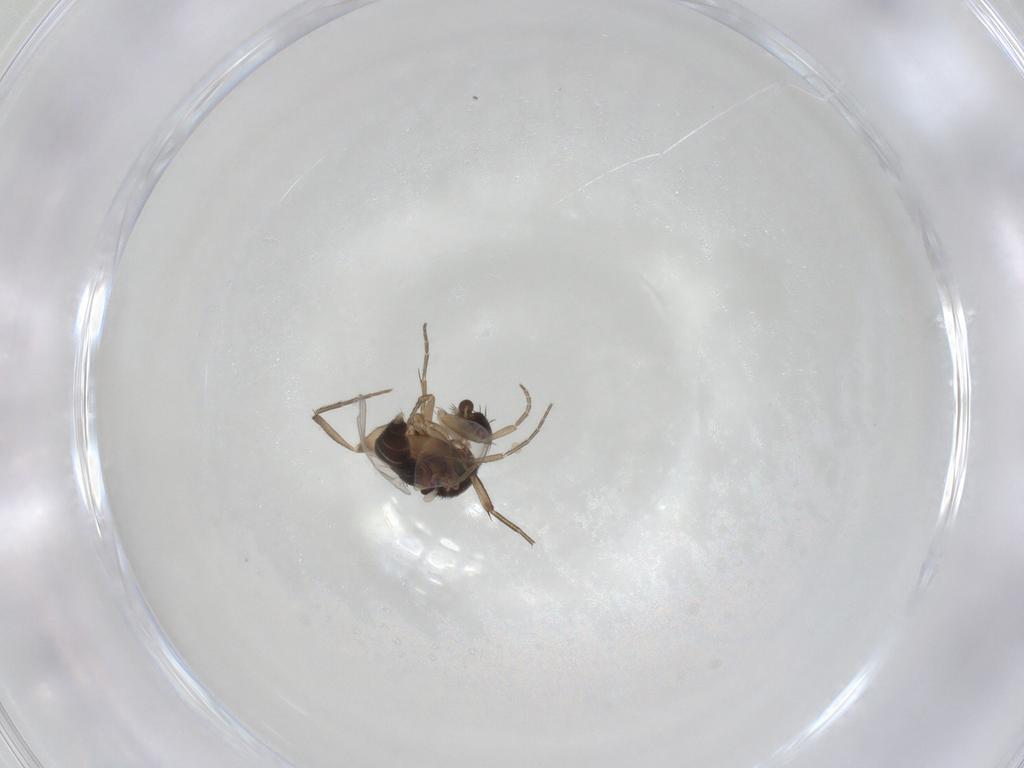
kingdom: Animalia
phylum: Arthropoda
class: Insecta
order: Diptera
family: Phoridae
